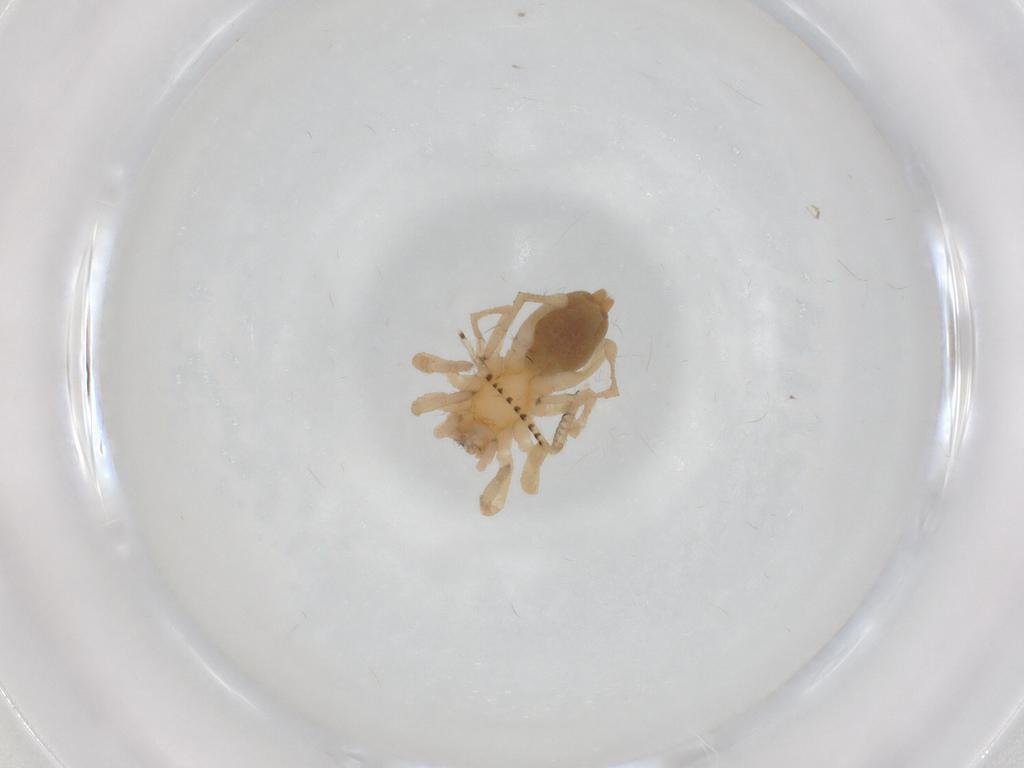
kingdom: Animalia
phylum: Arthropoda
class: Arachnida
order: Araneae
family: Clubionidae
